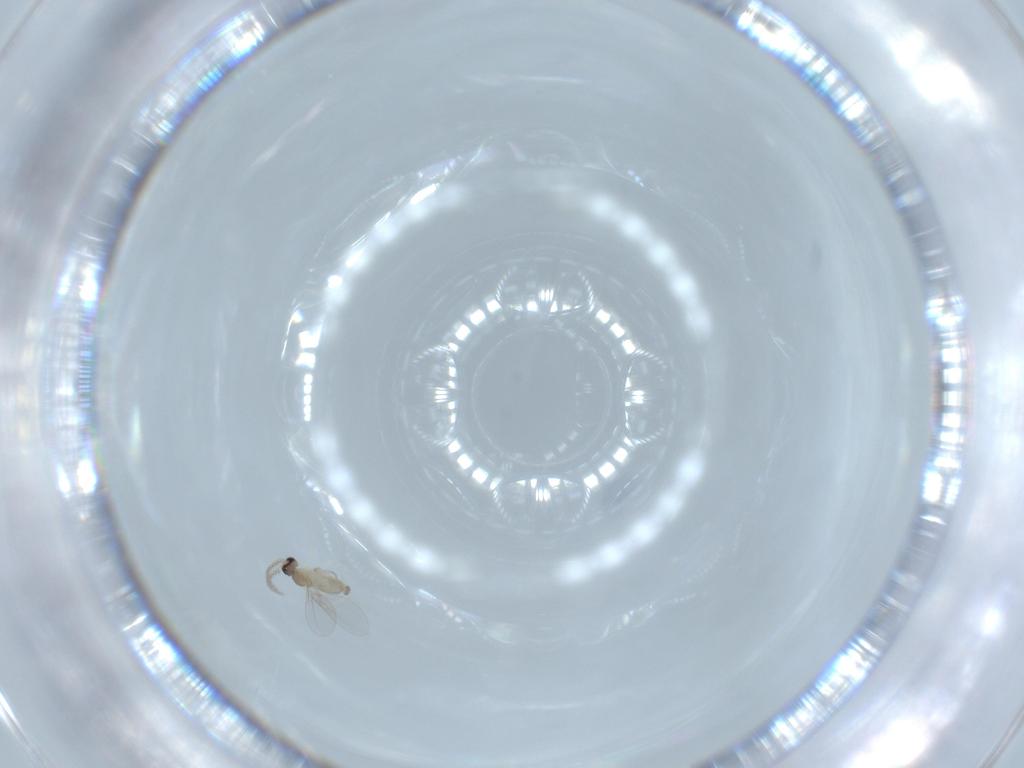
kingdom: Animalia
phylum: Arthropoda
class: Insecta
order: Diptera
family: Cecidomyiidae
